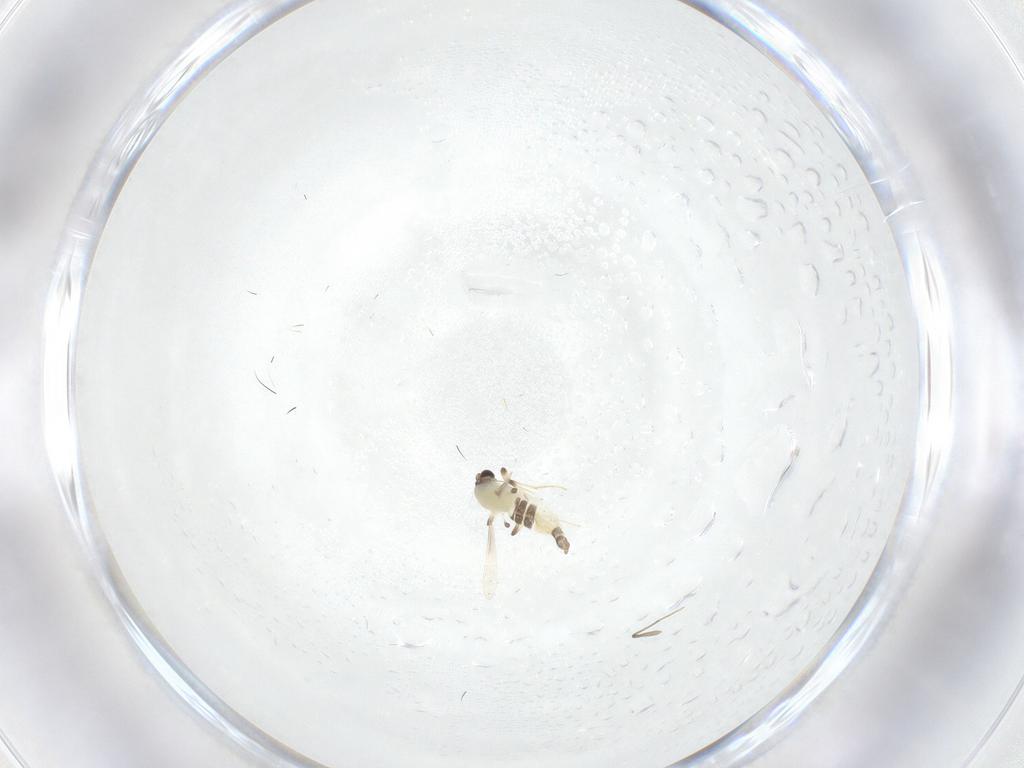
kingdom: Animalia
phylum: Arthropoda
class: Insecta
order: Diptera
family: Chironomidae
